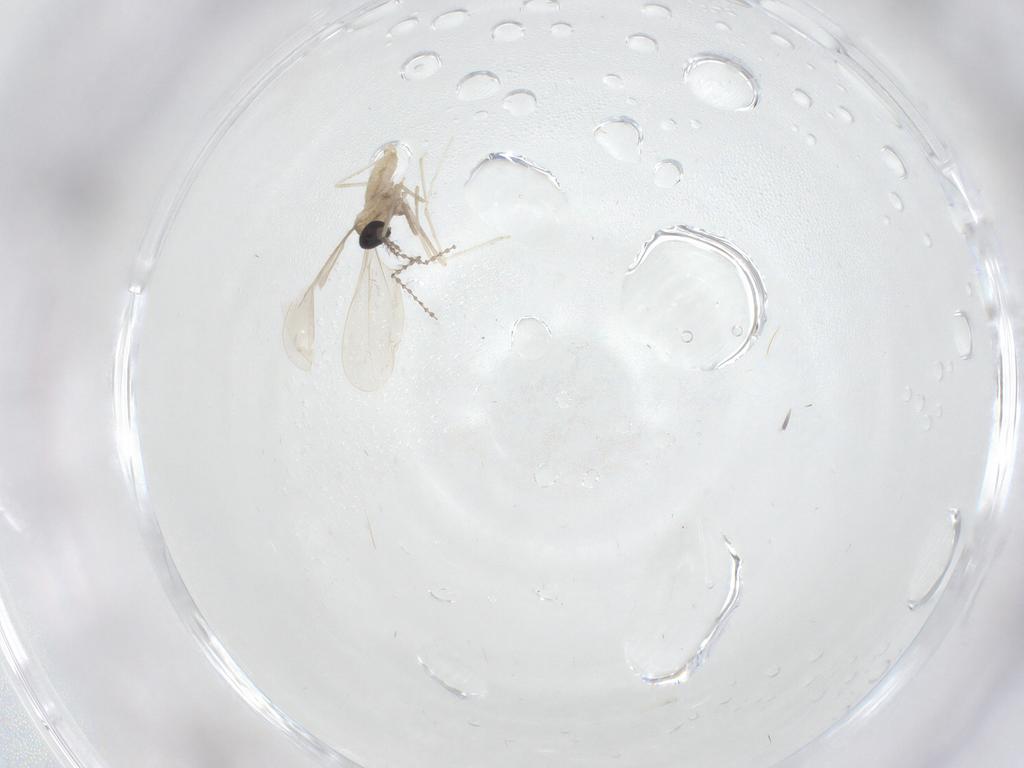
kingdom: Animalia
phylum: Arthropoda
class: Insecta
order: Diptera
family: Cecidomyiidae
